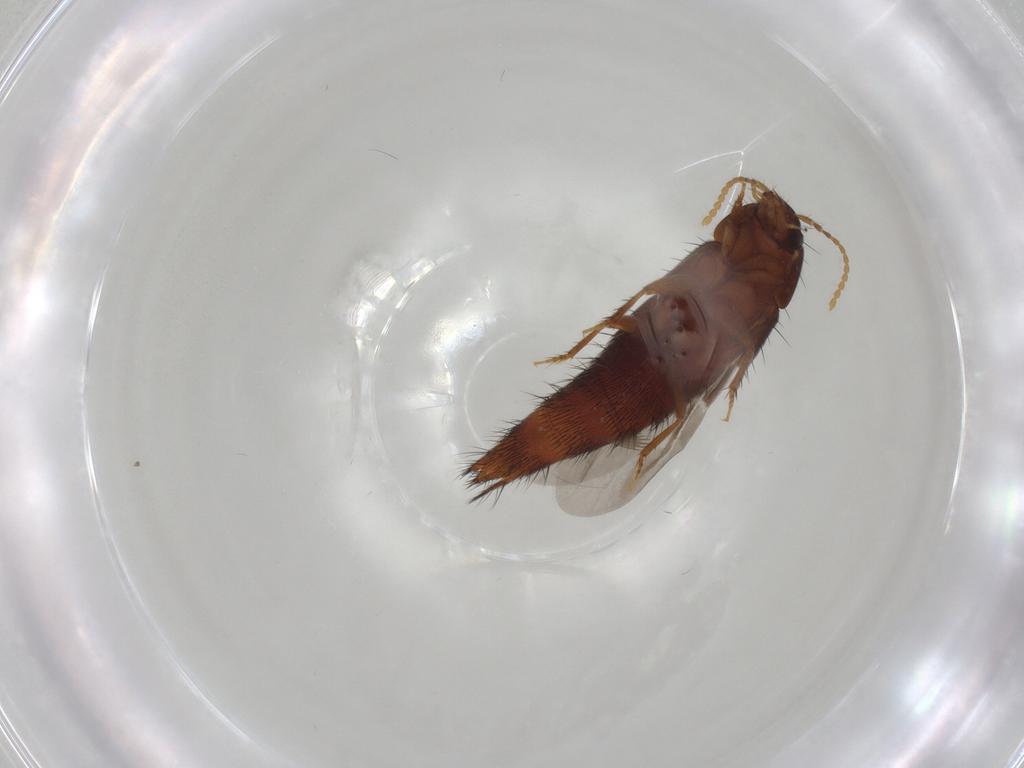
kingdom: Animalia
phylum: Arthropoda
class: Insecta
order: Coleoptera
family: Staphylinidae
